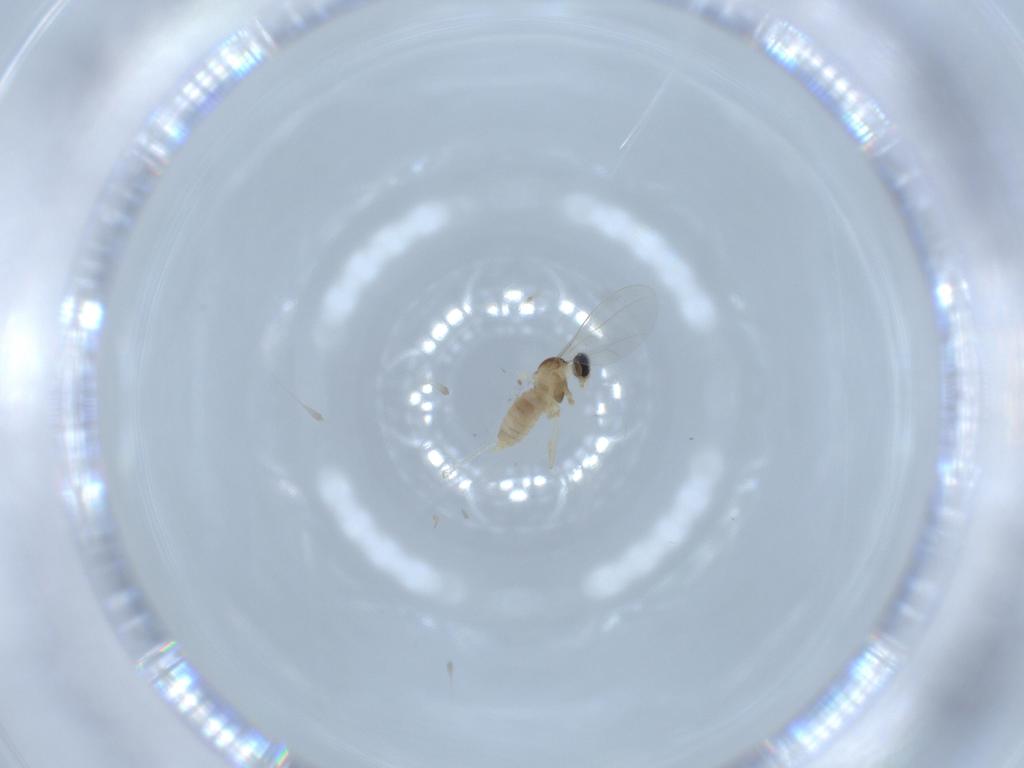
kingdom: Animalia
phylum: Arthropoda
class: Insecta
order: Diptera
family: Cecidomyiidae
